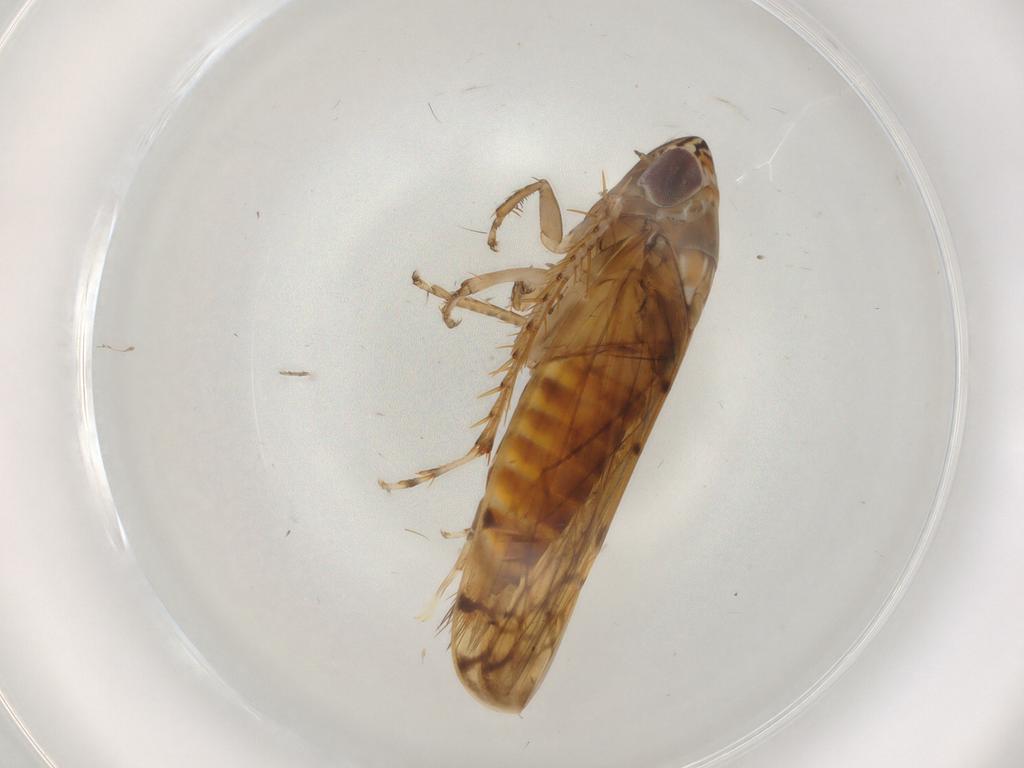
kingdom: Animalia
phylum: Arthropoda
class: Insecta
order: Hemiptera
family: Cicadellidae
